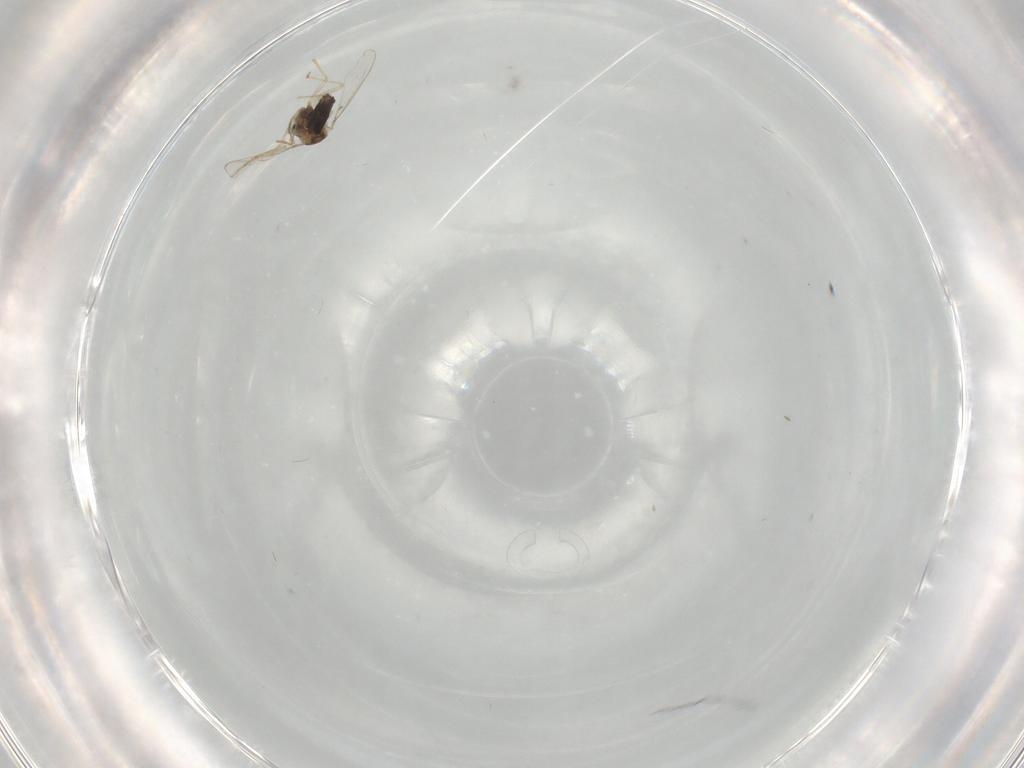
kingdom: Animalia
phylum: Arthropoda
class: Insecta
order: Diptera
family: Chironomidae
